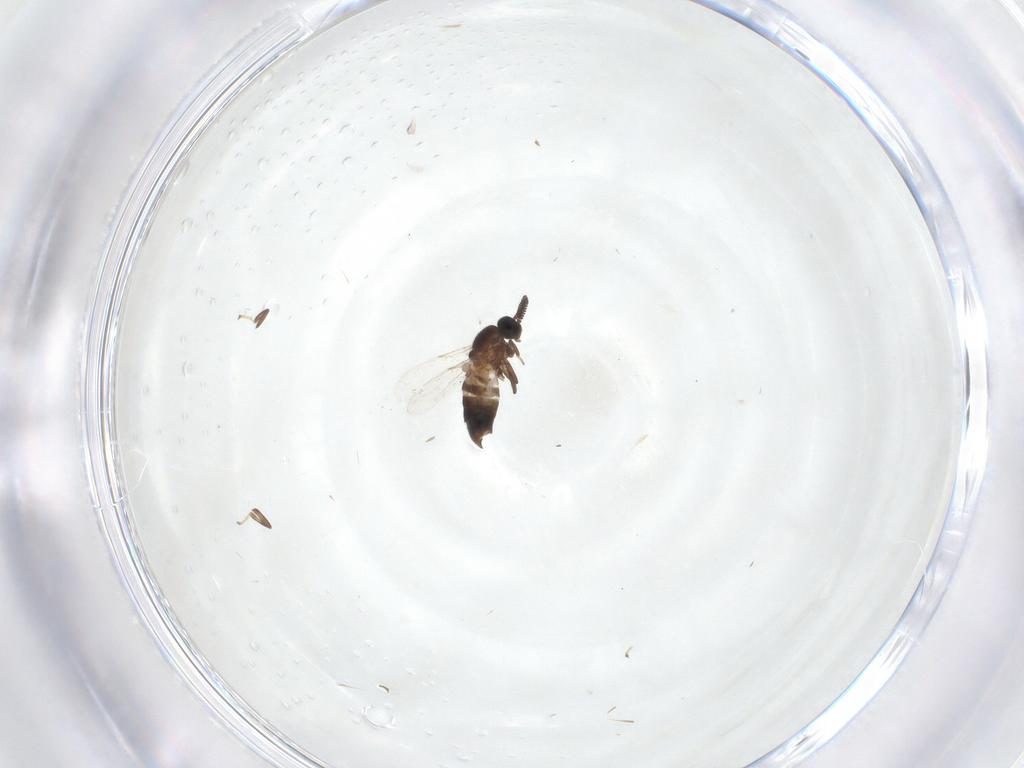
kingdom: Animalia
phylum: Arthropoda
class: Insecta
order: Diptera
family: Scatopsidae
